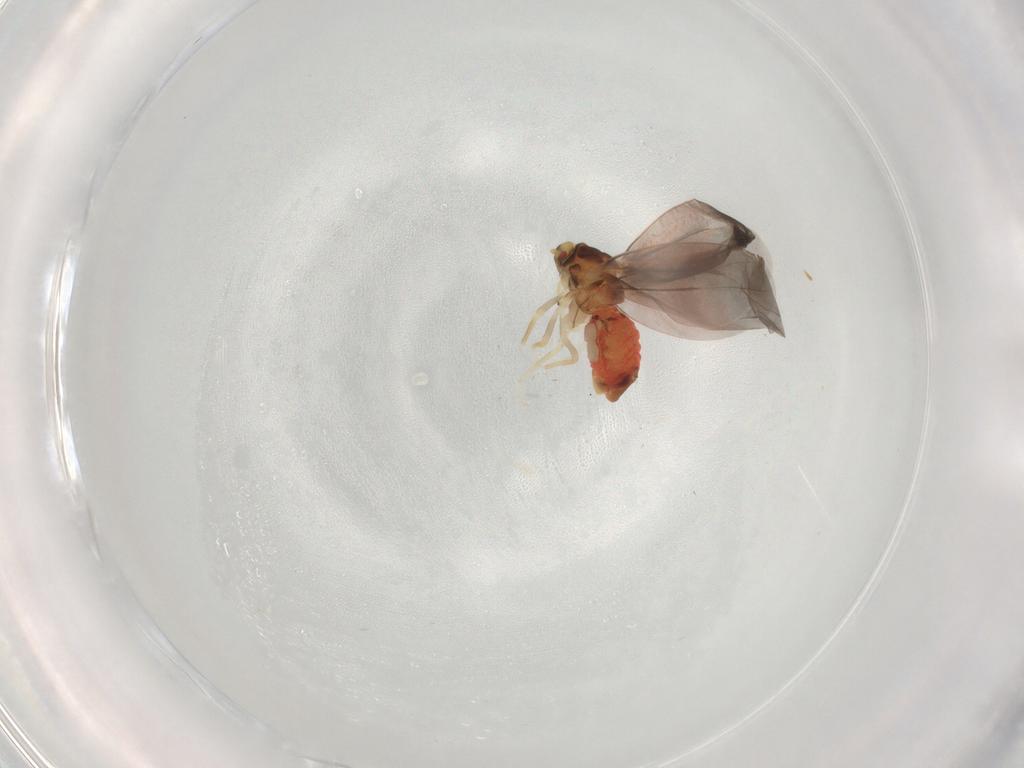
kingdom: Animalia
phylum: Arthropoda
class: Insecta
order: Hemiptera
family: Aleyrodidae
